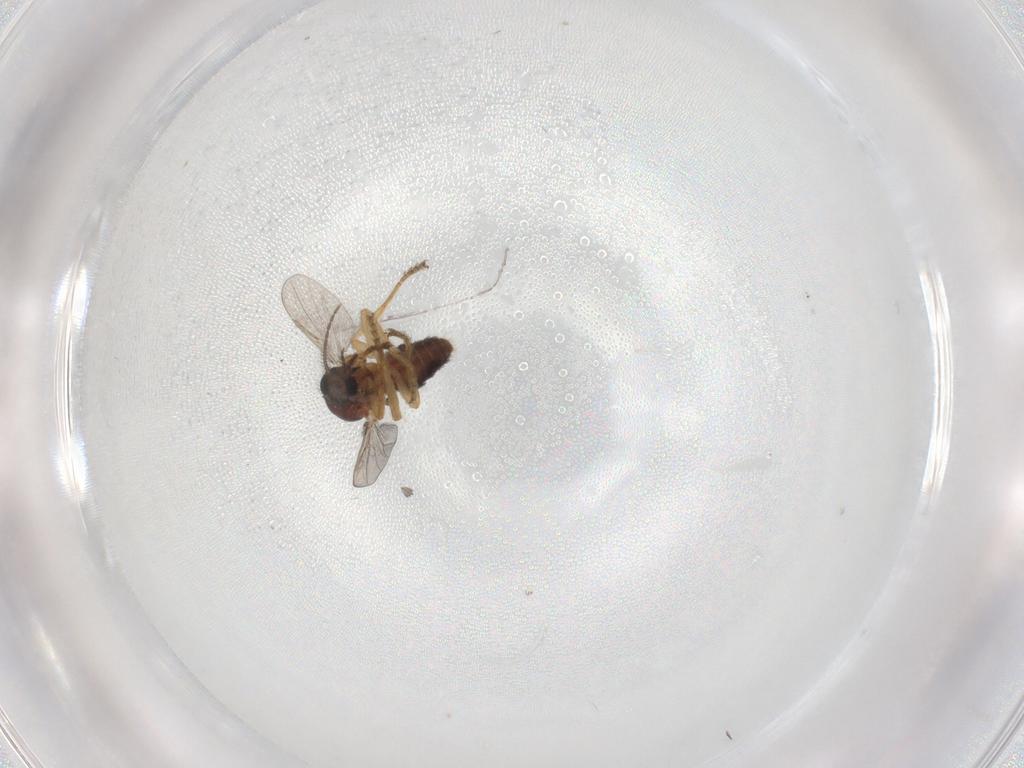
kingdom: Animalia
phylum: Arthropoda
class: Insecta
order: Diptera
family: Ceratopogonidae
